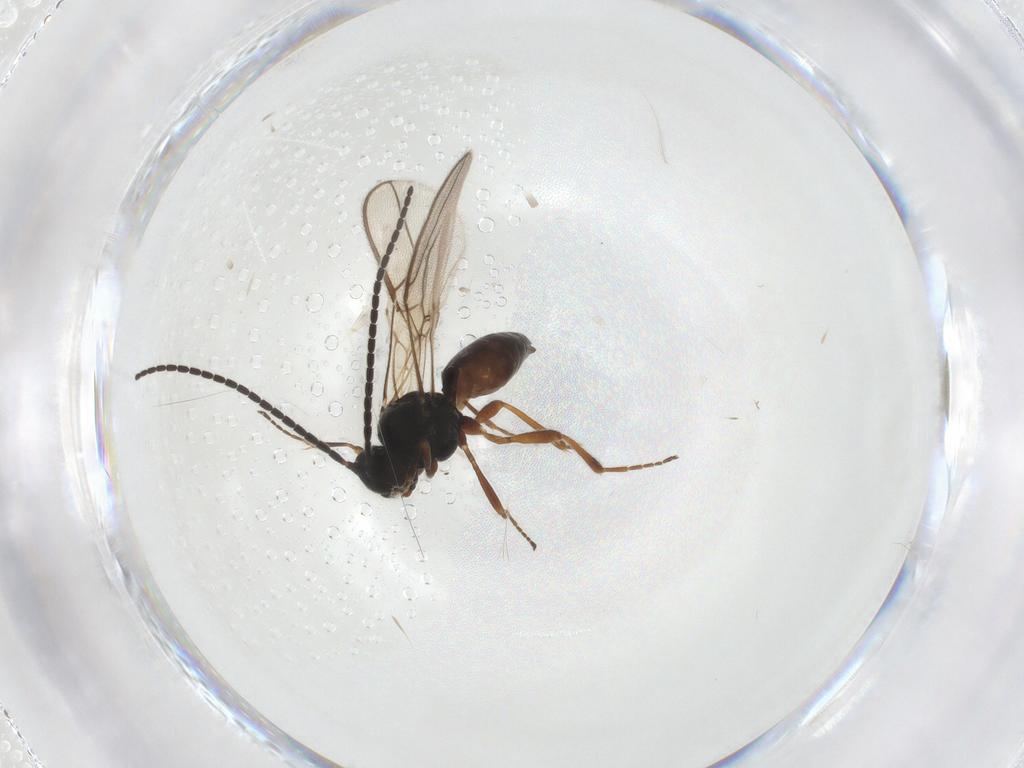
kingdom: Animalia
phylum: Arthropoda
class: Insecta
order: Hymenoptera
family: Braconidae
